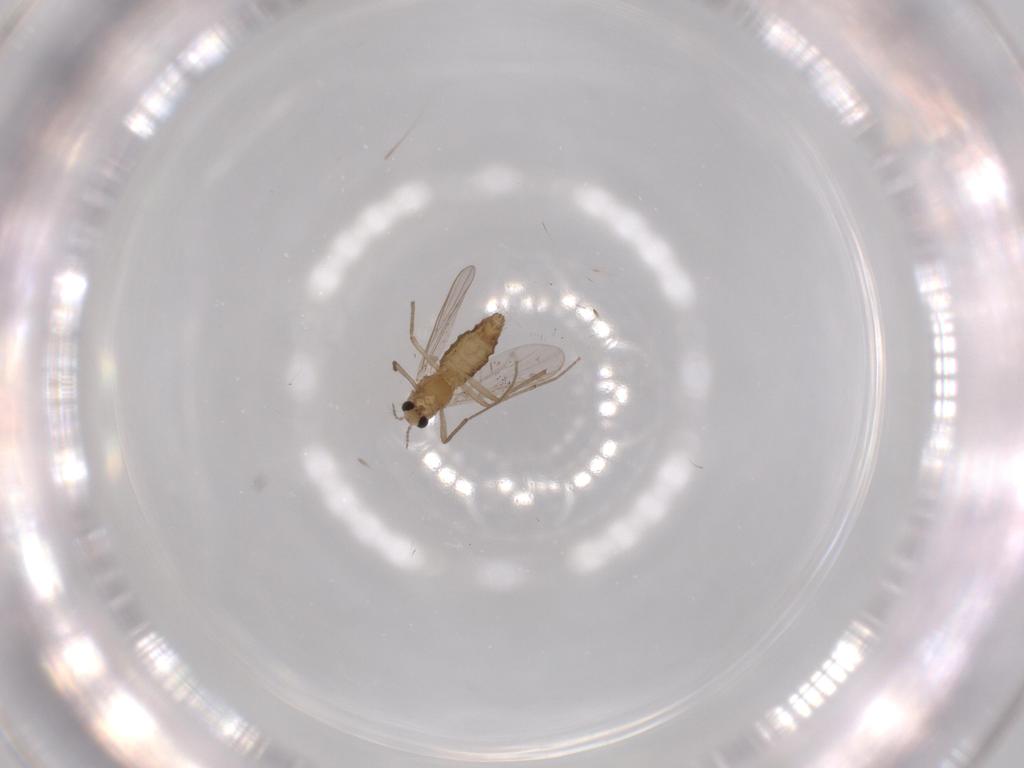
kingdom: Animalia
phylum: Arthropoda
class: Insecta
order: Diptera
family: Chironomidae
